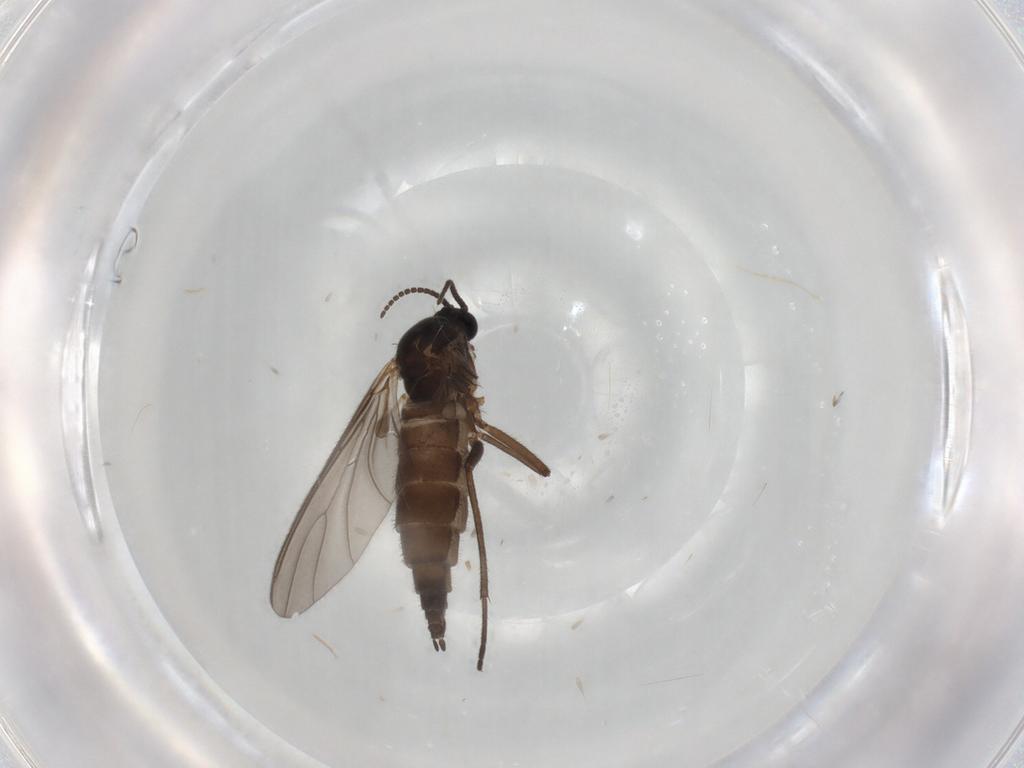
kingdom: Animalia
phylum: Arthropoda
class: Insecta
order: Diptera
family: Sciaridae
